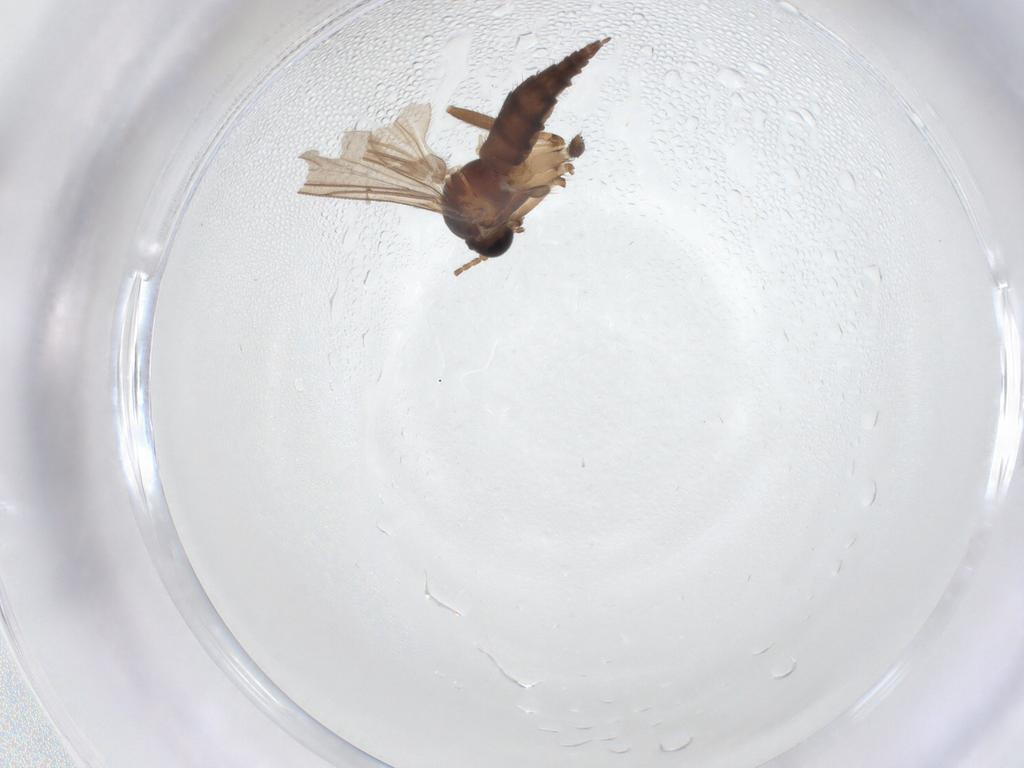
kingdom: Animalia
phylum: Arthropoda
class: Insecta
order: Diptera
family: Ceratopogonidae
